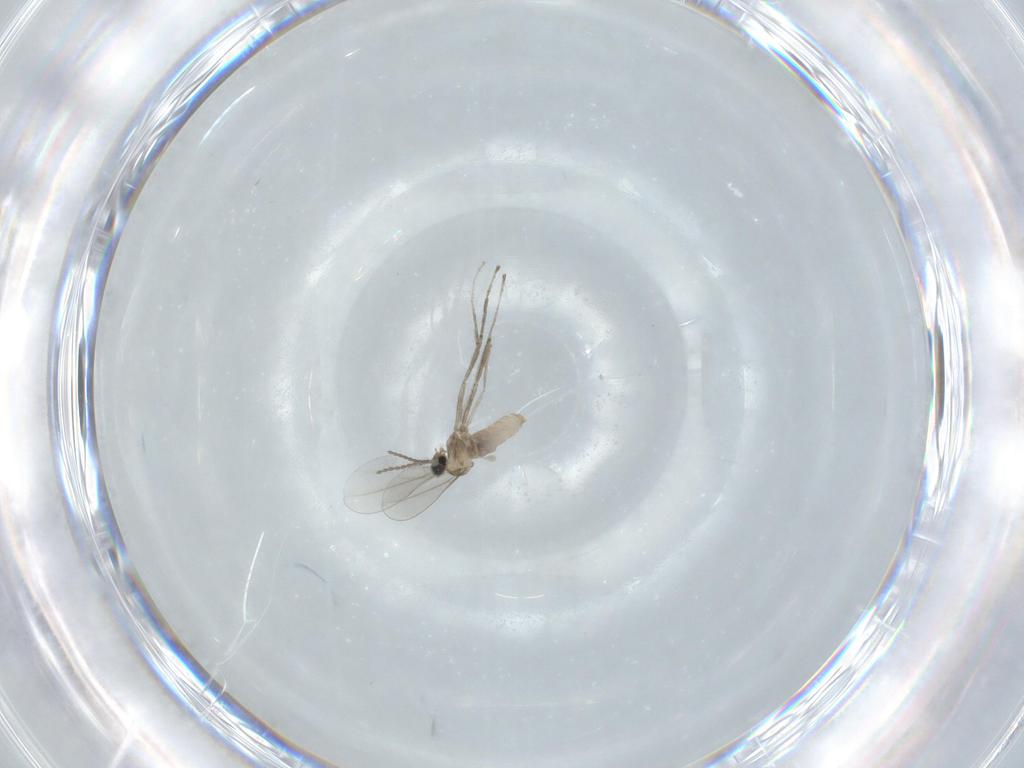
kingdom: Animalia
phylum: Arthropoda
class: Insecta
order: Diptera
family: Cecidomyiidae
